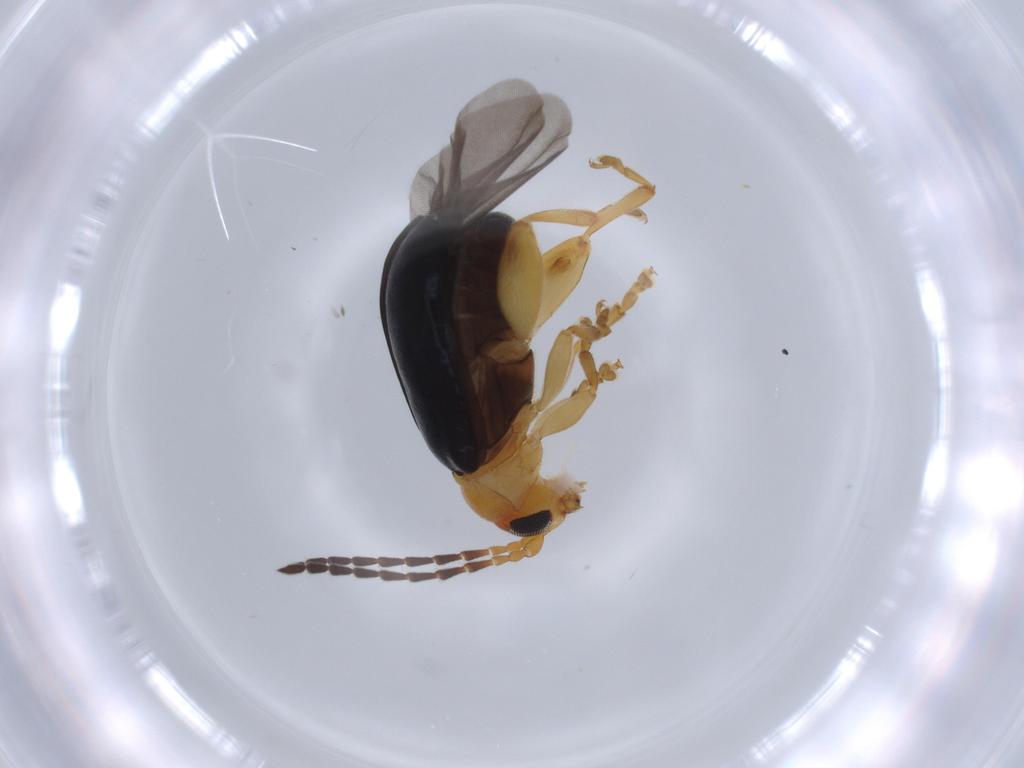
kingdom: Animalia
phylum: Arthropoda
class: Insecta
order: Coleoptera
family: Chrysomelidae
